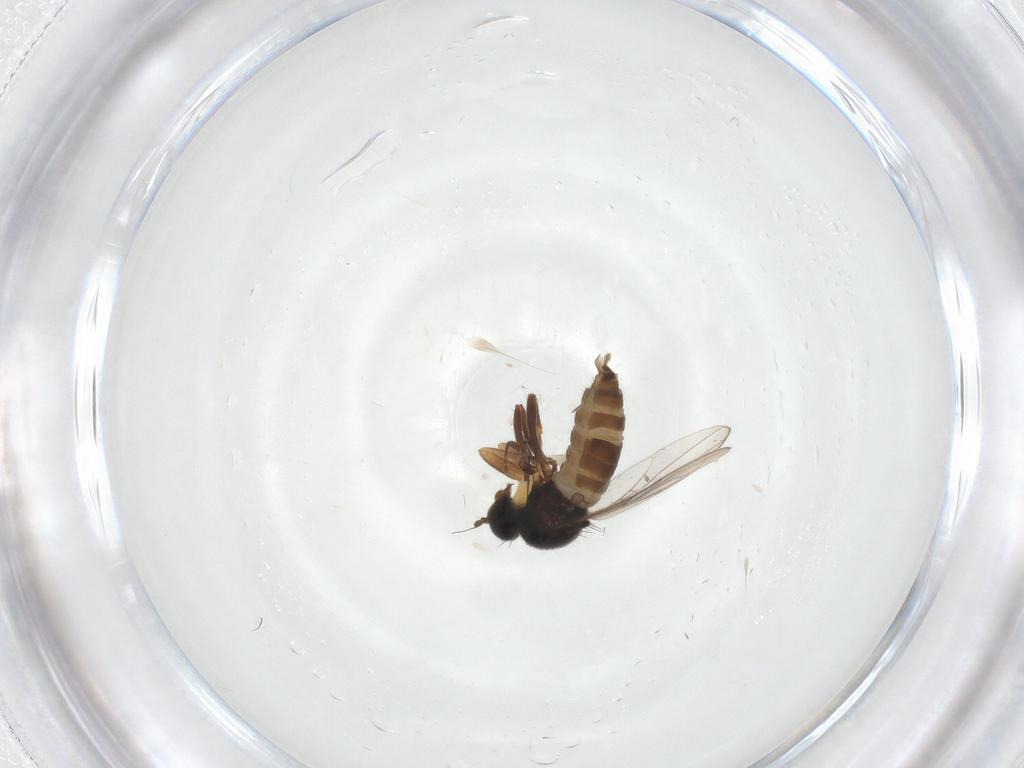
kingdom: Animalia
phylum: Arthropoda
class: Insecta
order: Diptera
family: Hybotidae
